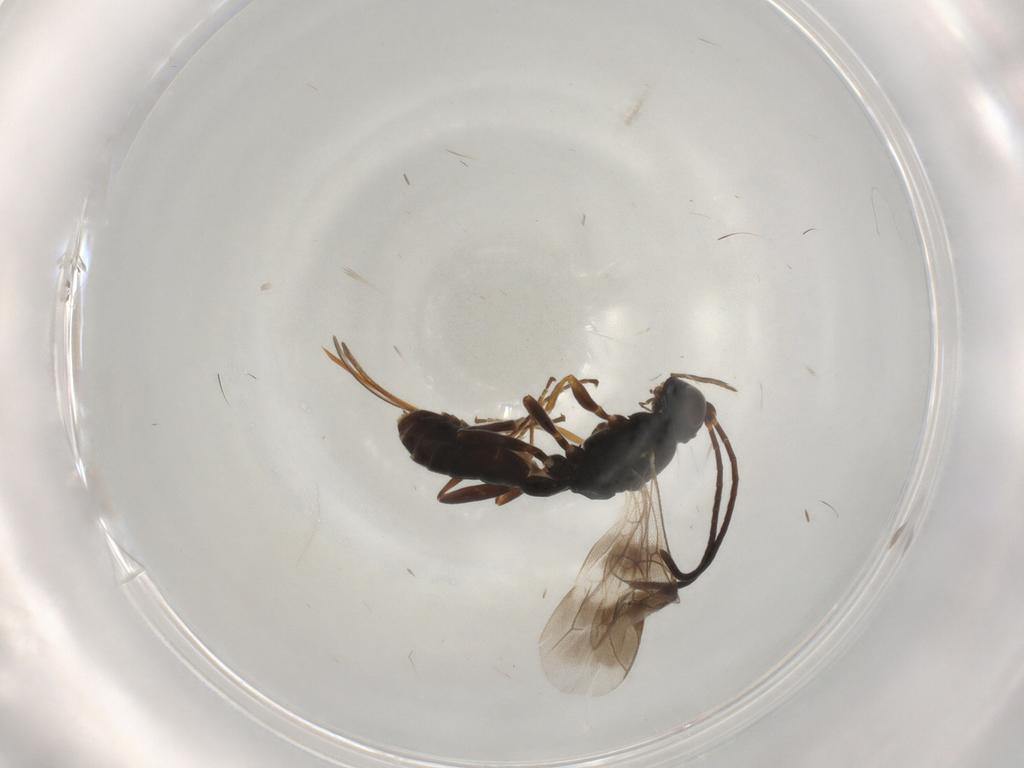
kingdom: Animalia
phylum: Arthropoda
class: Insecta
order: Hymenoptera
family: Ichneumonidae
